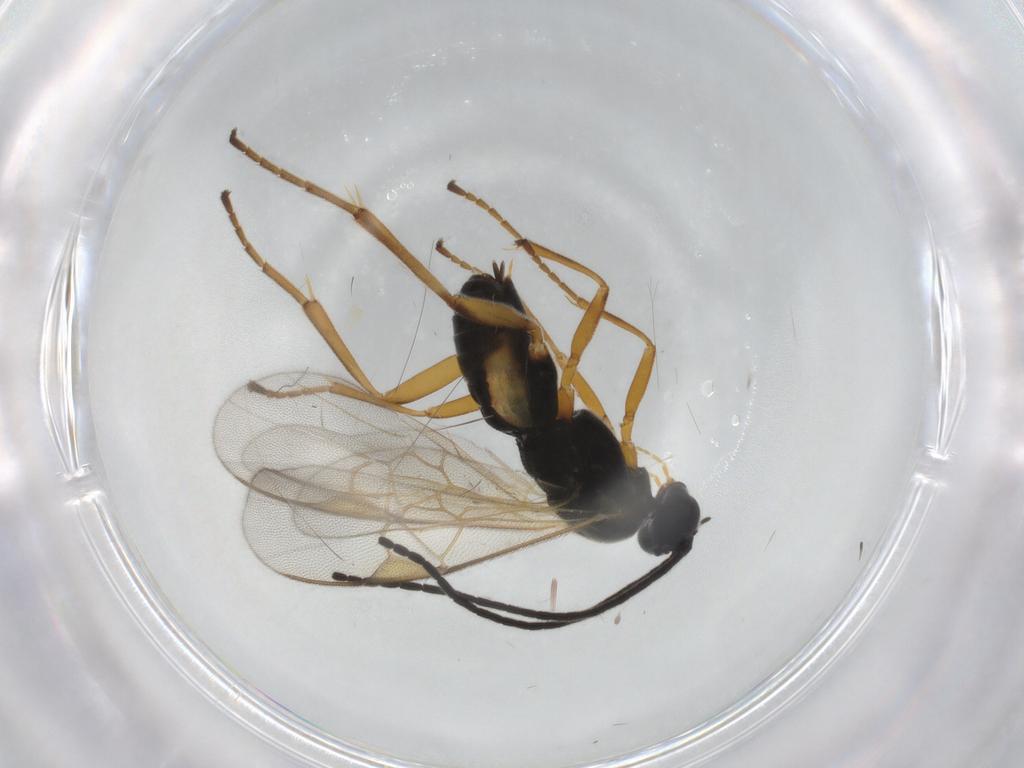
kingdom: Animalia
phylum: Arthropoda
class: Insecta
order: Hymenoptera
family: Braconidae
